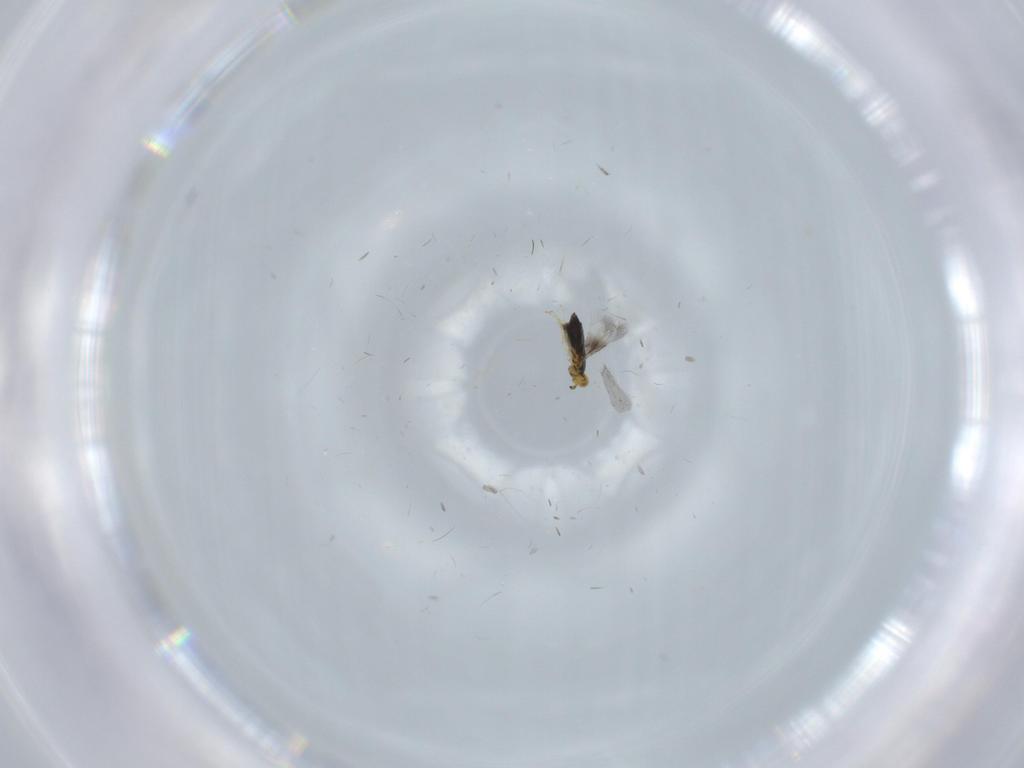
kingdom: Animalia
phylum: Arthropoda
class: Insecta
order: Hymenoptera
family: Signiphoridae
